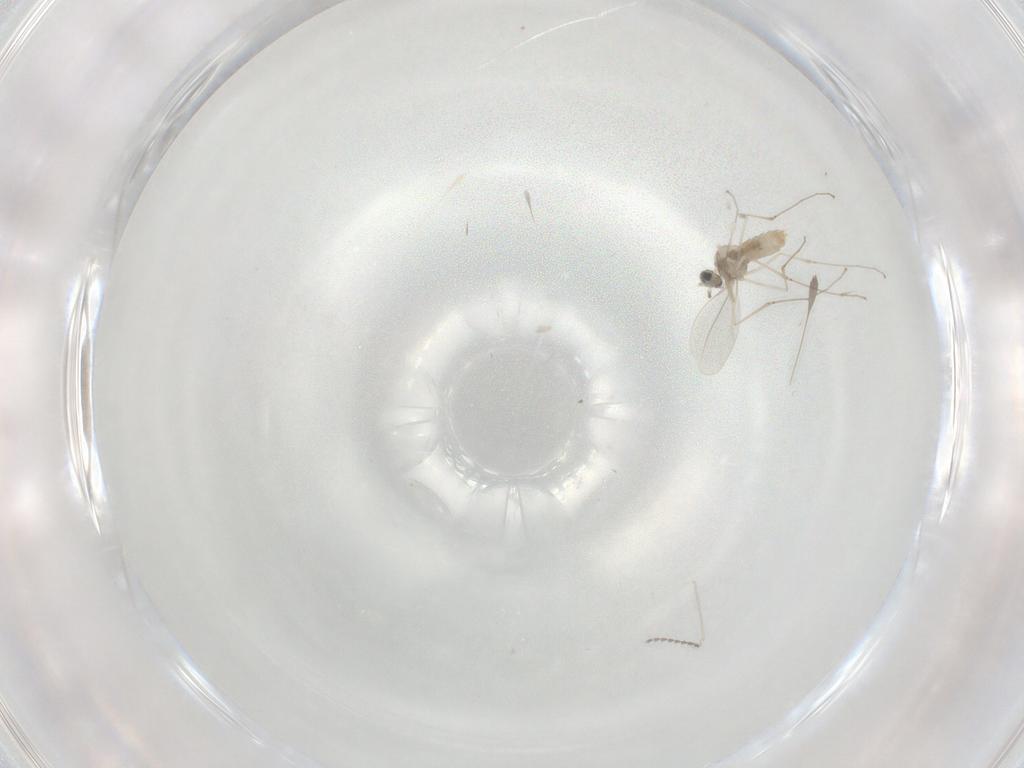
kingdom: Animalia
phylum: Arthropoda
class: Insecta
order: Diptera
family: Cecidomyiidae
